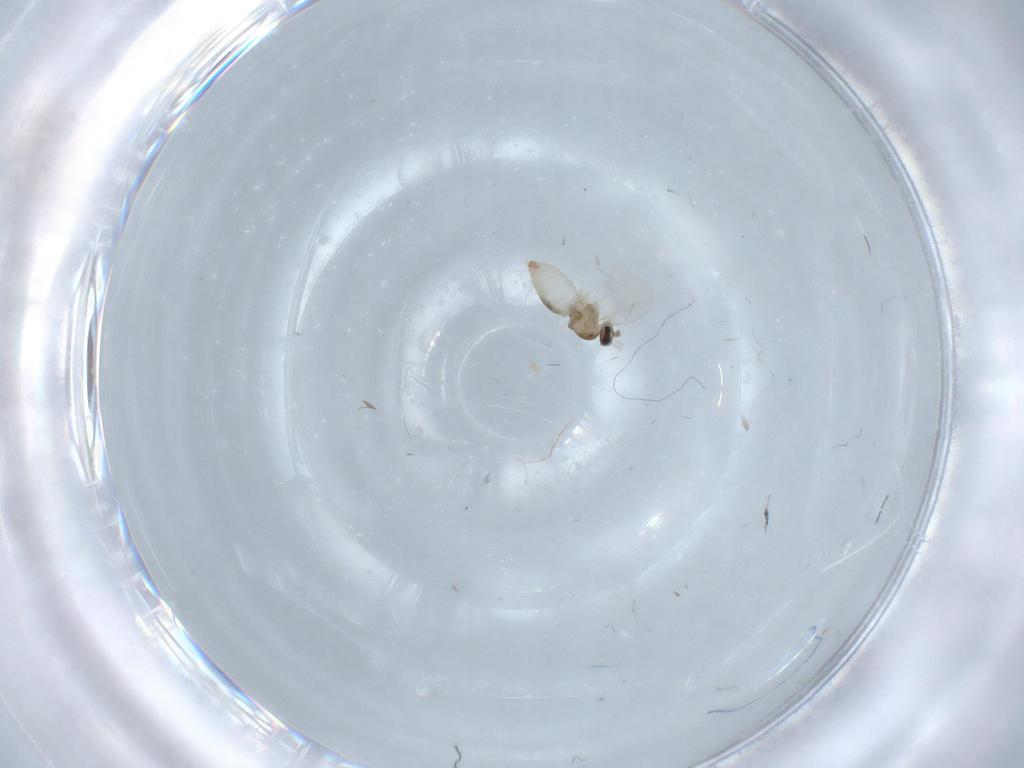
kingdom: Animalia
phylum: Arthropoda
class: Insecta
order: Diptera
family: Cecidomyiidae
